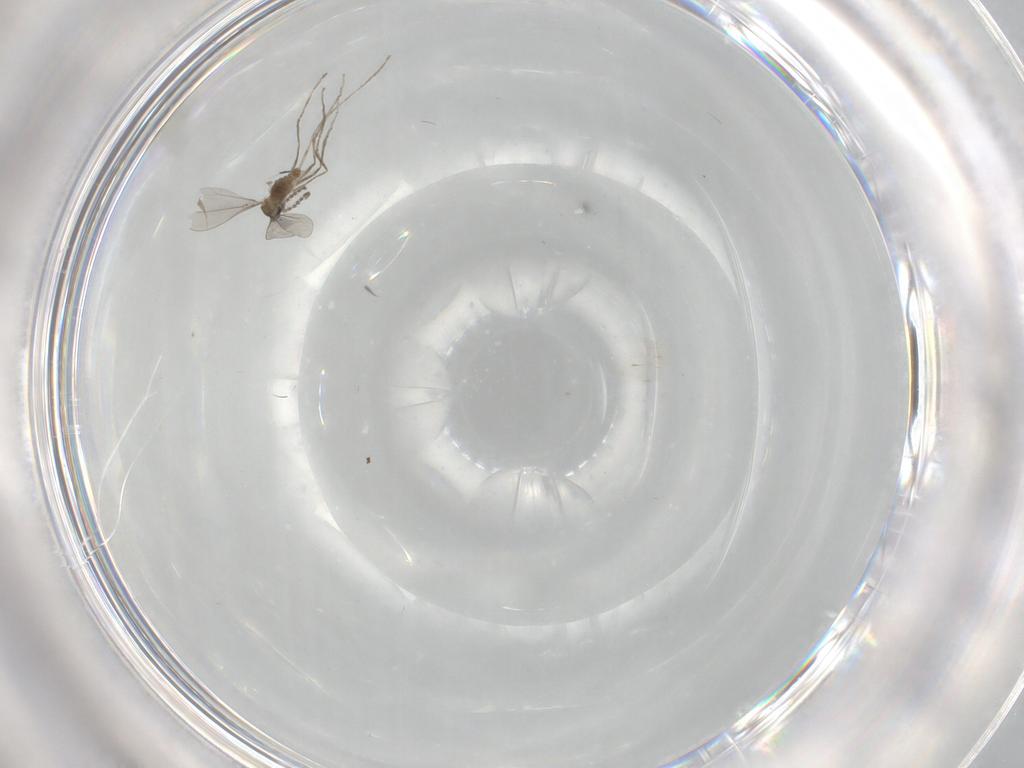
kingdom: Animalia
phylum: Arthropoda
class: Insecta
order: Diptera
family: Cecidomyiidae
